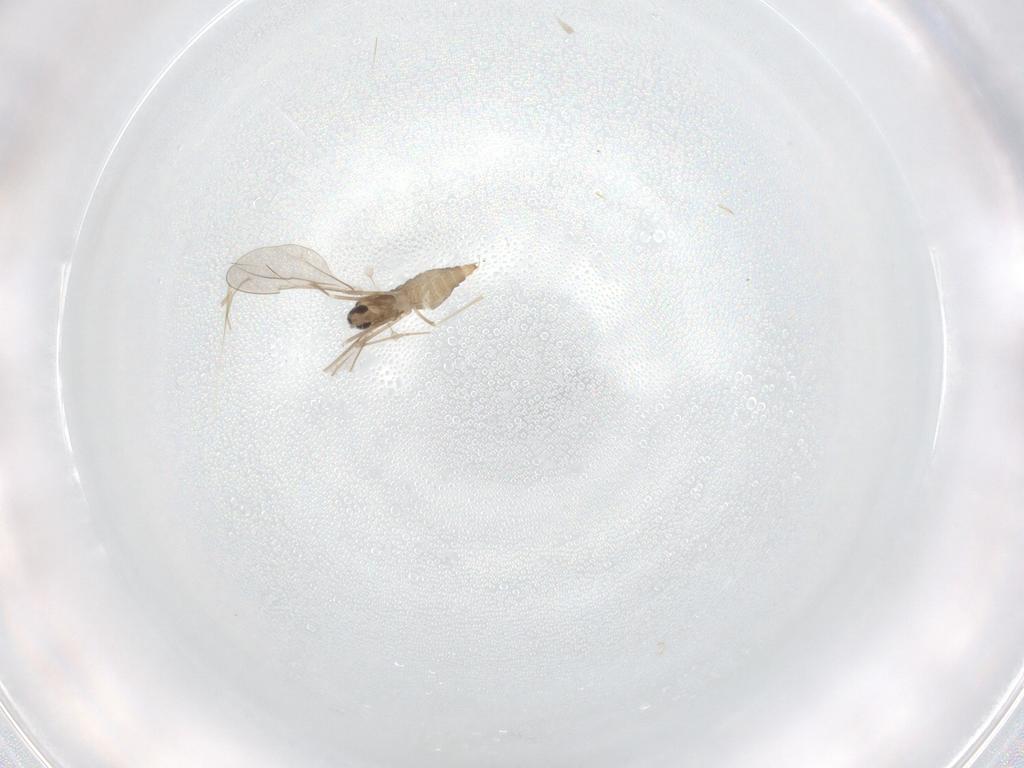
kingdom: Animalia
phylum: Arthropoda
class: Insecta
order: Diptera
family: Cecidomyiidae
